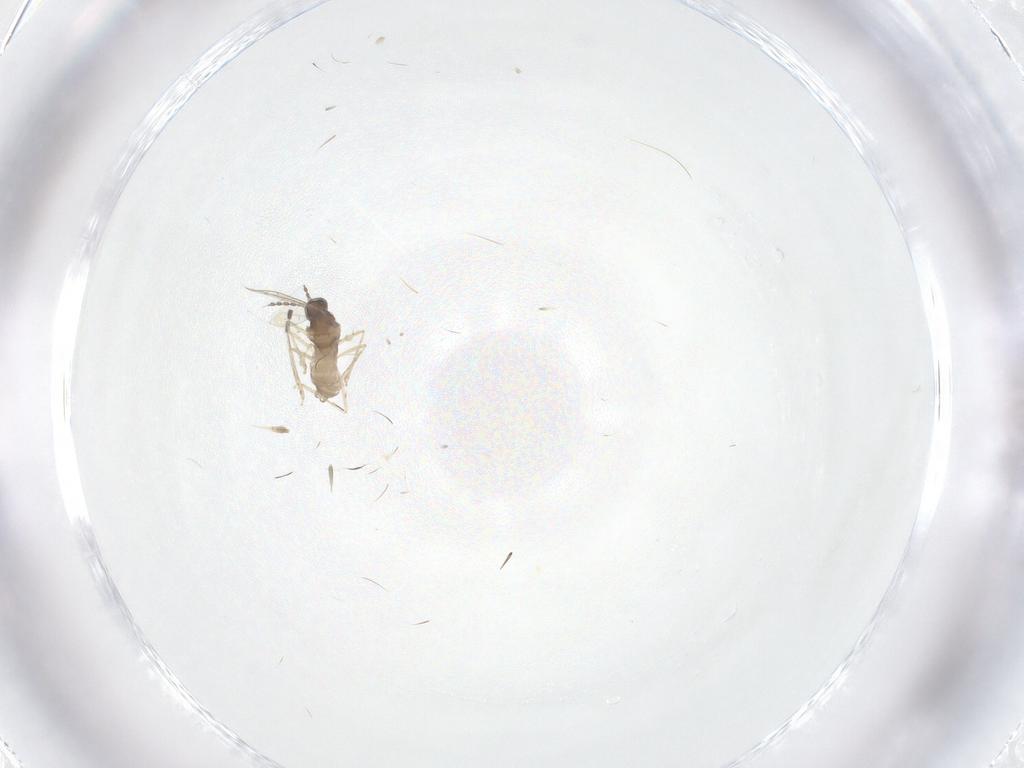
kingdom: Animalia
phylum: Arthropoda
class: Insecta
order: Diptera
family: Cecidomyiidae
